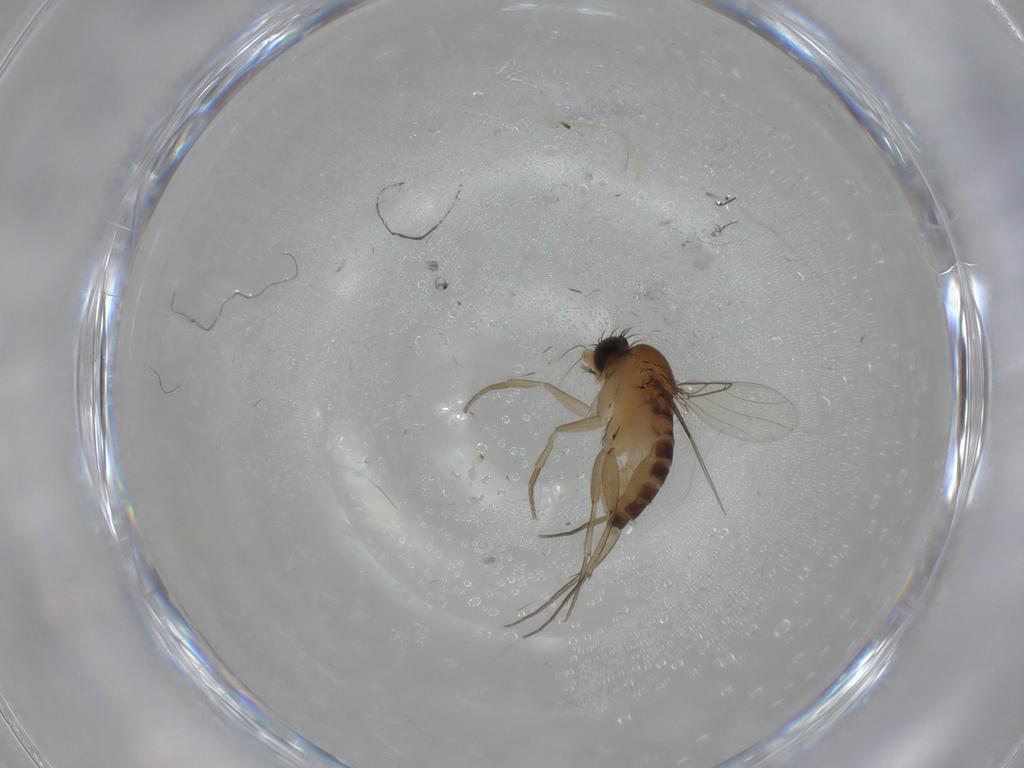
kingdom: Animalia
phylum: Arthropoda
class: Insecta
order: Diptera
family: Phoridae
